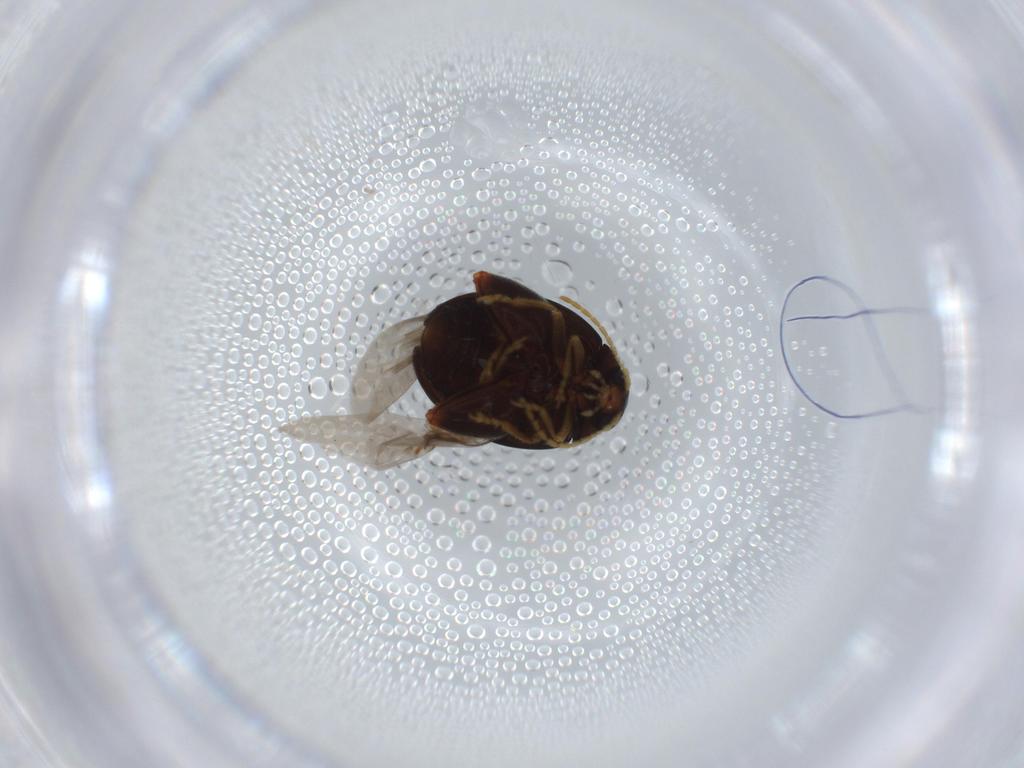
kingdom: Animalia
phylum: Arthropoda
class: Insecta
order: Coleoptera
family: Chrysomelidae
